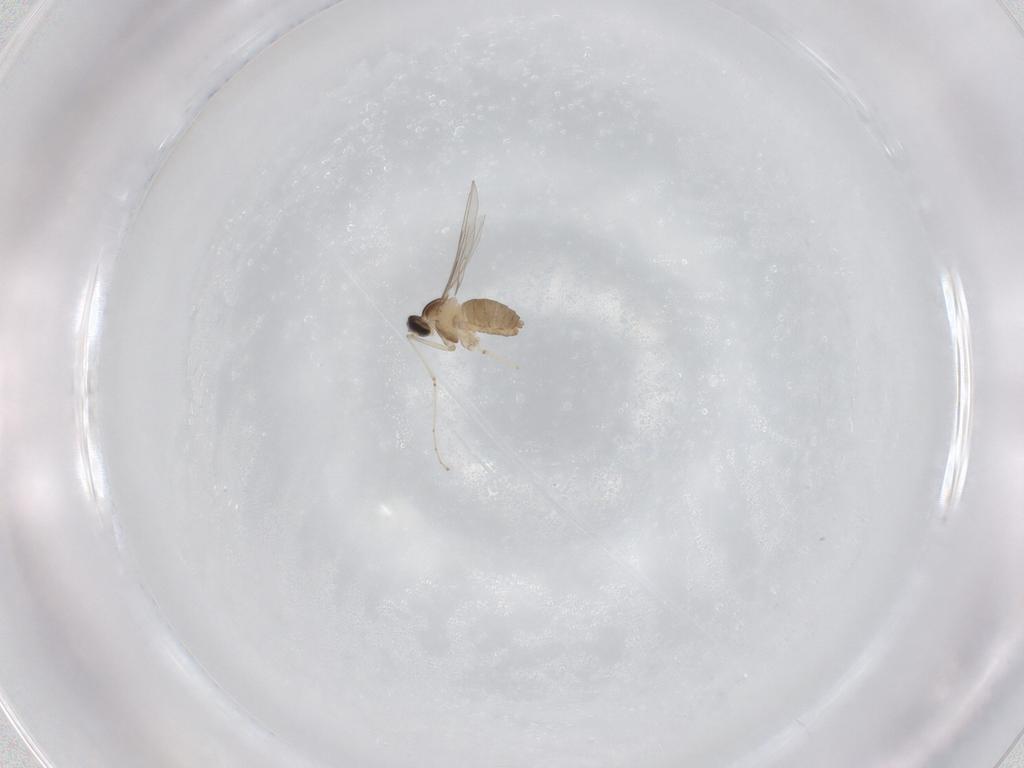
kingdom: Animalia
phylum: Arthropoda
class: Insecta
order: Diptera
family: Cecidomyiidae
